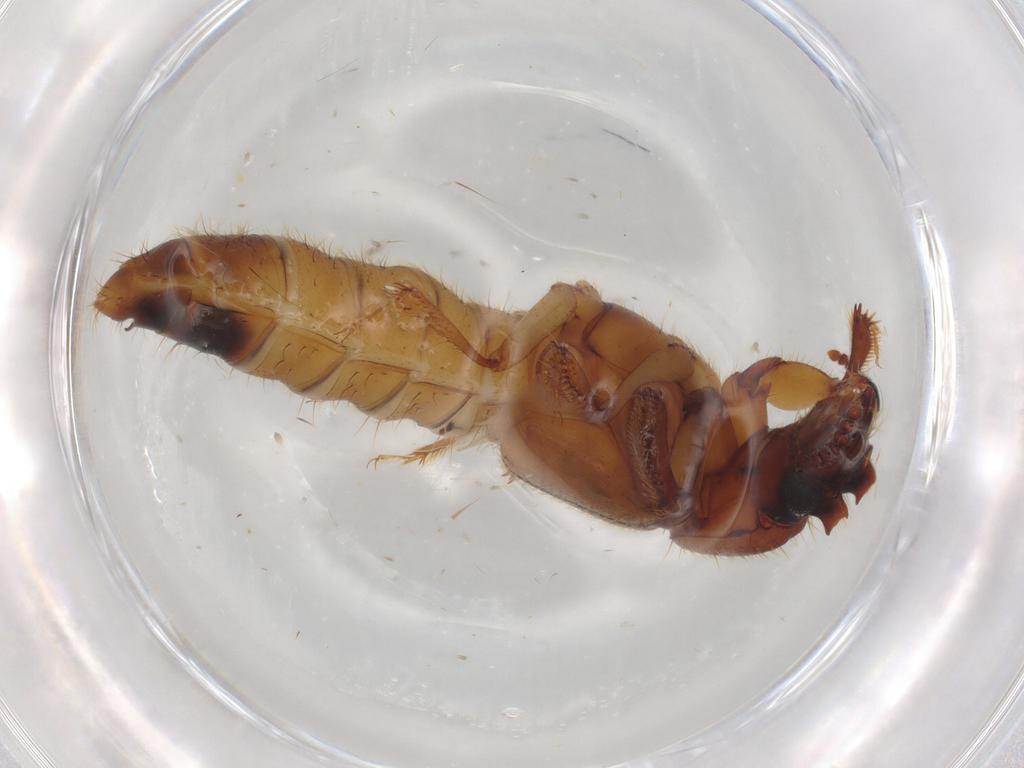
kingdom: Animalia
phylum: Arthropoda
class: Insecta
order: Coleoptera
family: Staphylinidae
